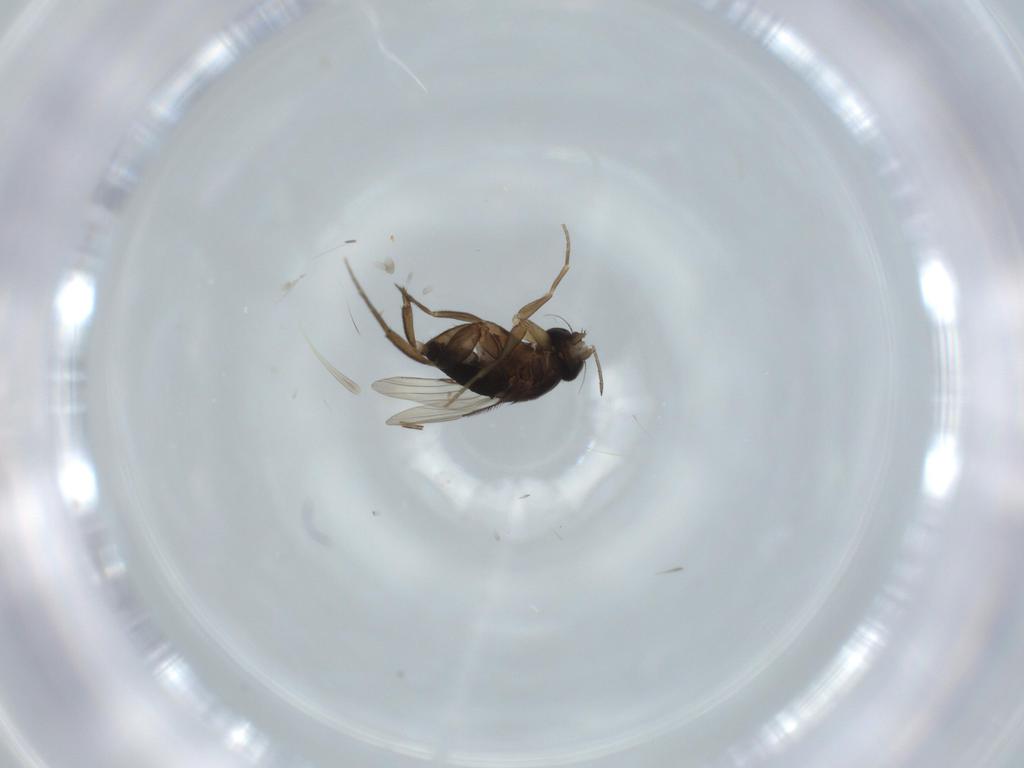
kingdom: Animalia
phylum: Arthropoda
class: Insecta
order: Diptera
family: Phoridae
